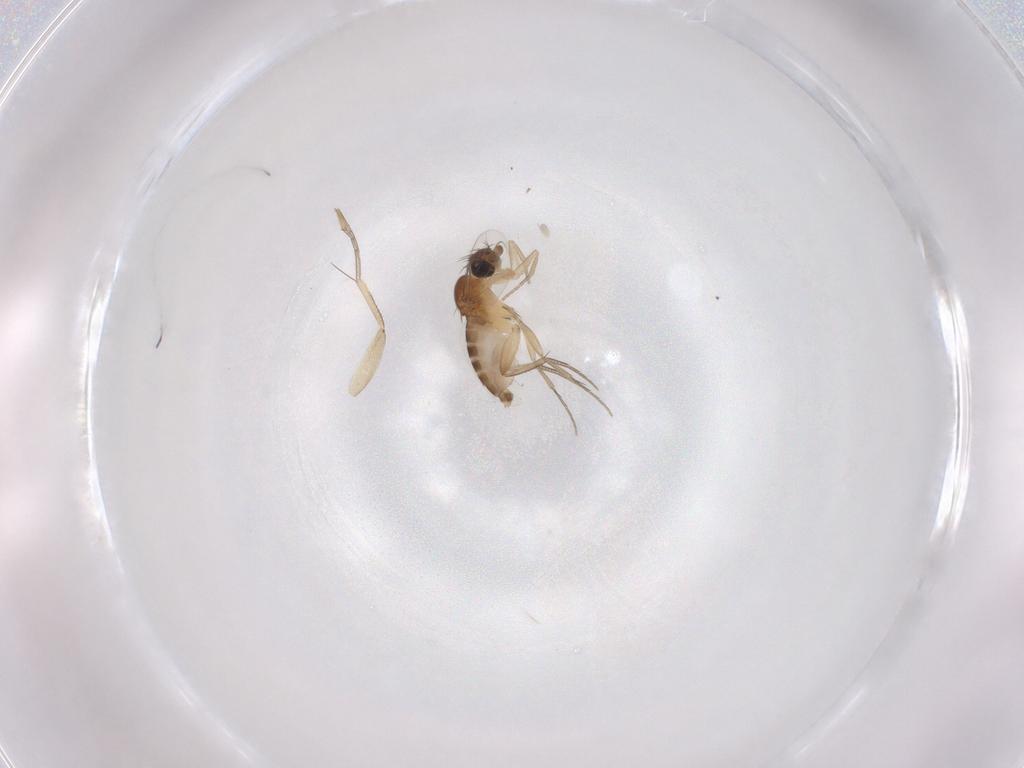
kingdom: Animalia
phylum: Arthropoda
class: Insecta
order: Diptera
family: Phoridae
